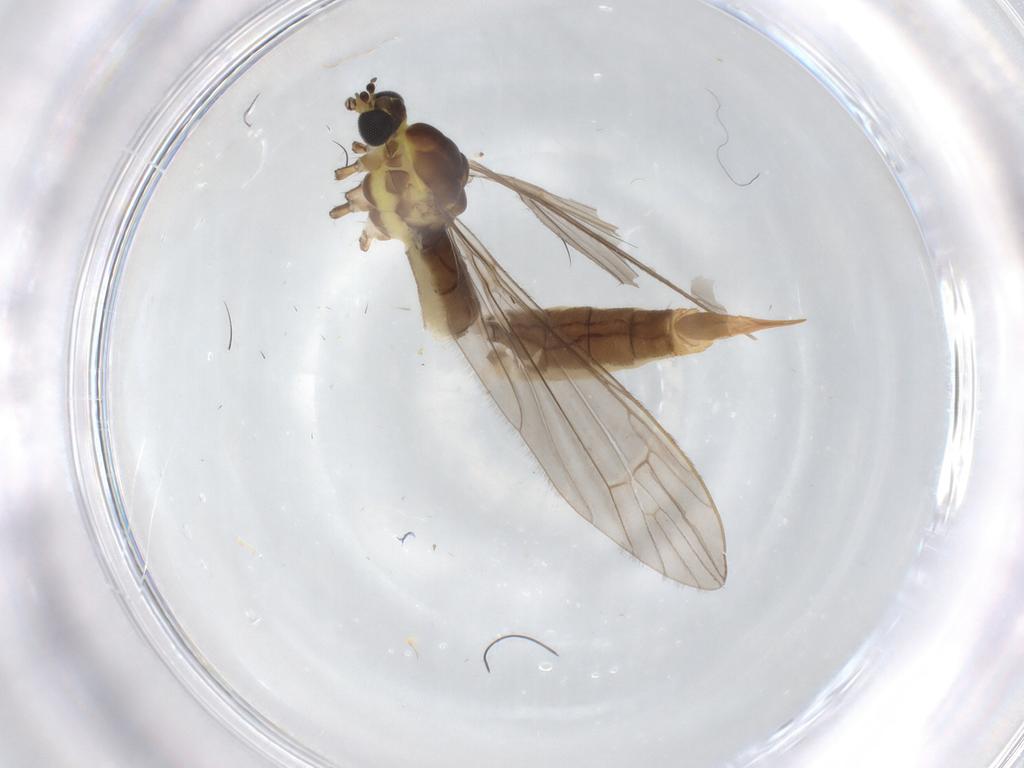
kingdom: Animalia
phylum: Arthropoda
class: Insecta
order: Diptera
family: Limoniidae
